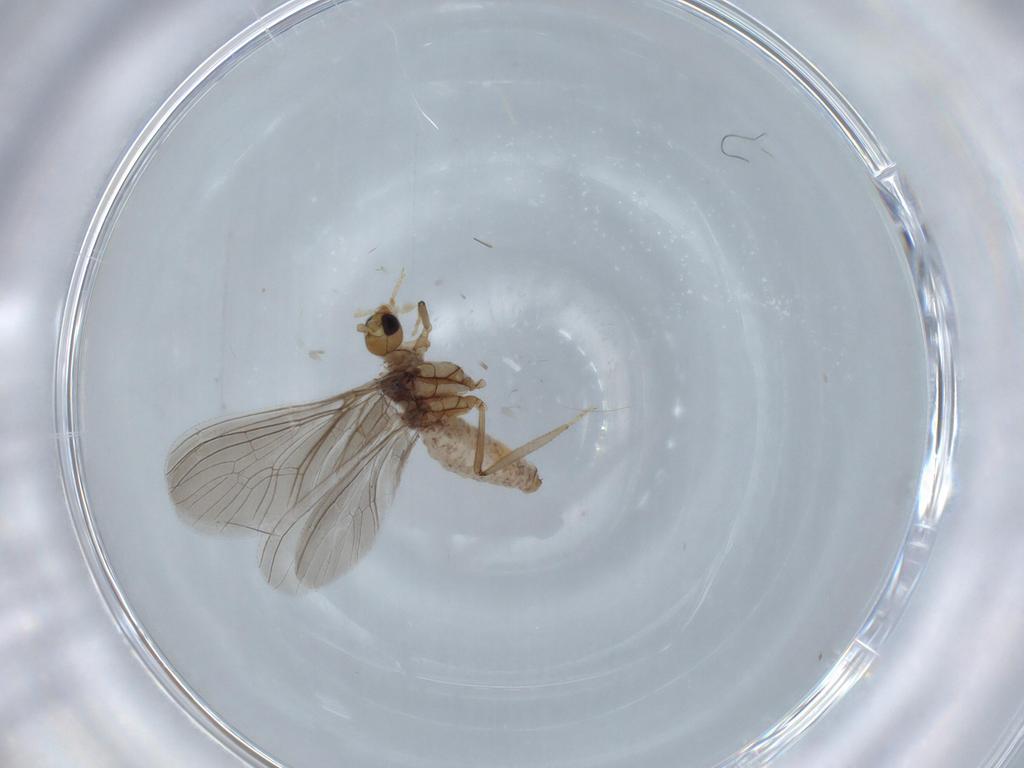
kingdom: Animalia
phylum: Arthropoda
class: Insecta
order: Neuroptera
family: Coniopterygidae
